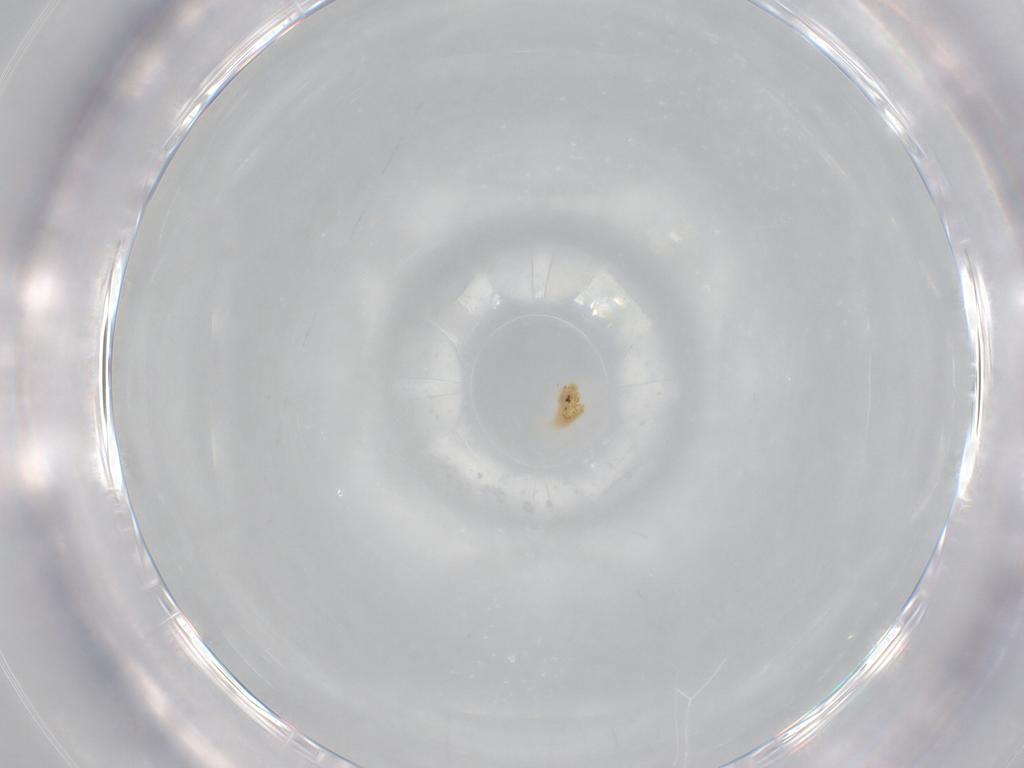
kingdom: Animalia
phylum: Arthropoda
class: Arachnida
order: Trombidiformes
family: Tetranychidae
